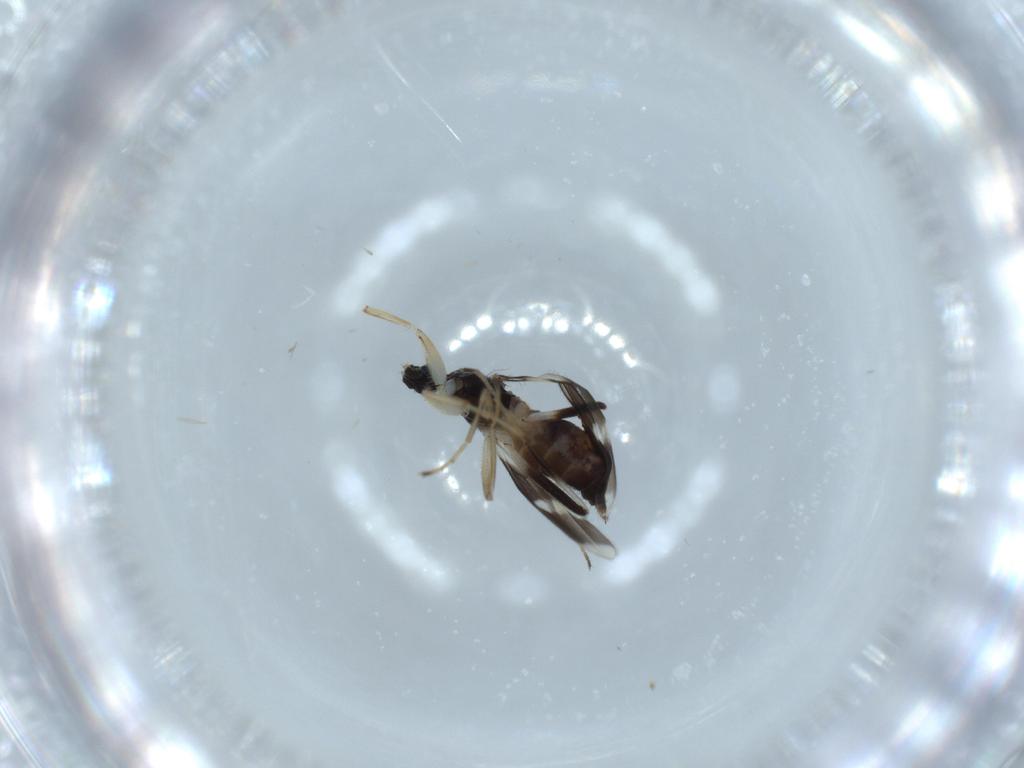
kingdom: Animalia
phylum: Arthropoda
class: Insecta
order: Diptera
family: Hybotidae
